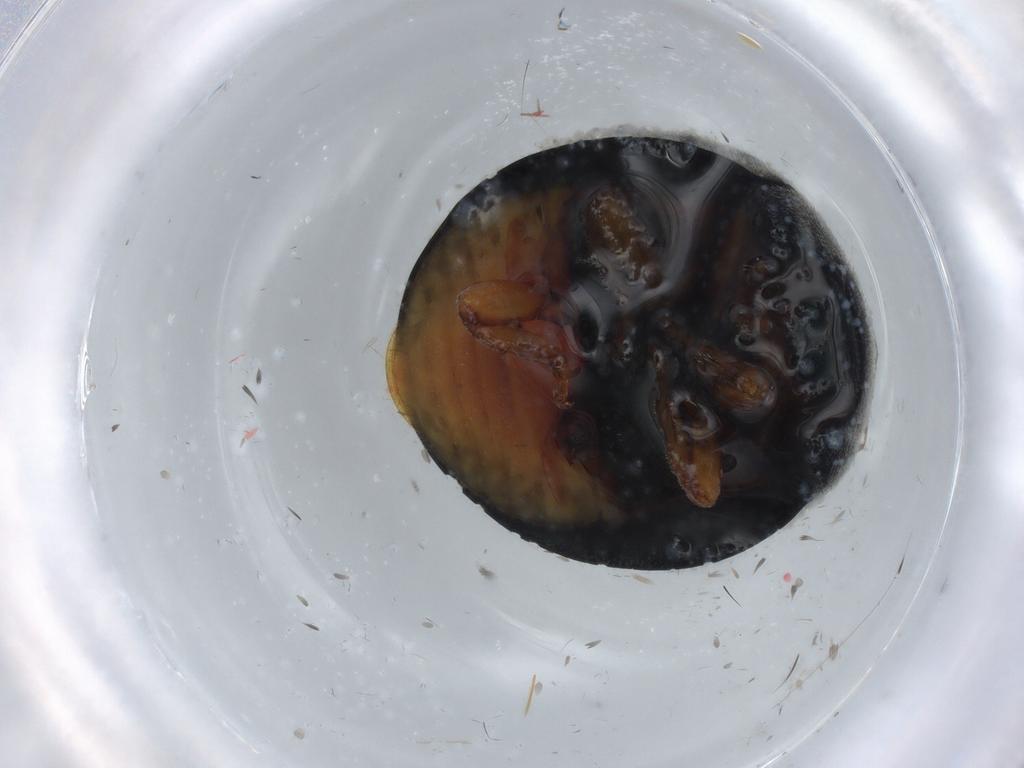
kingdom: Animalia
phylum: Arthropoda
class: Insecta
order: Coleoptera
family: Coccinellidae
